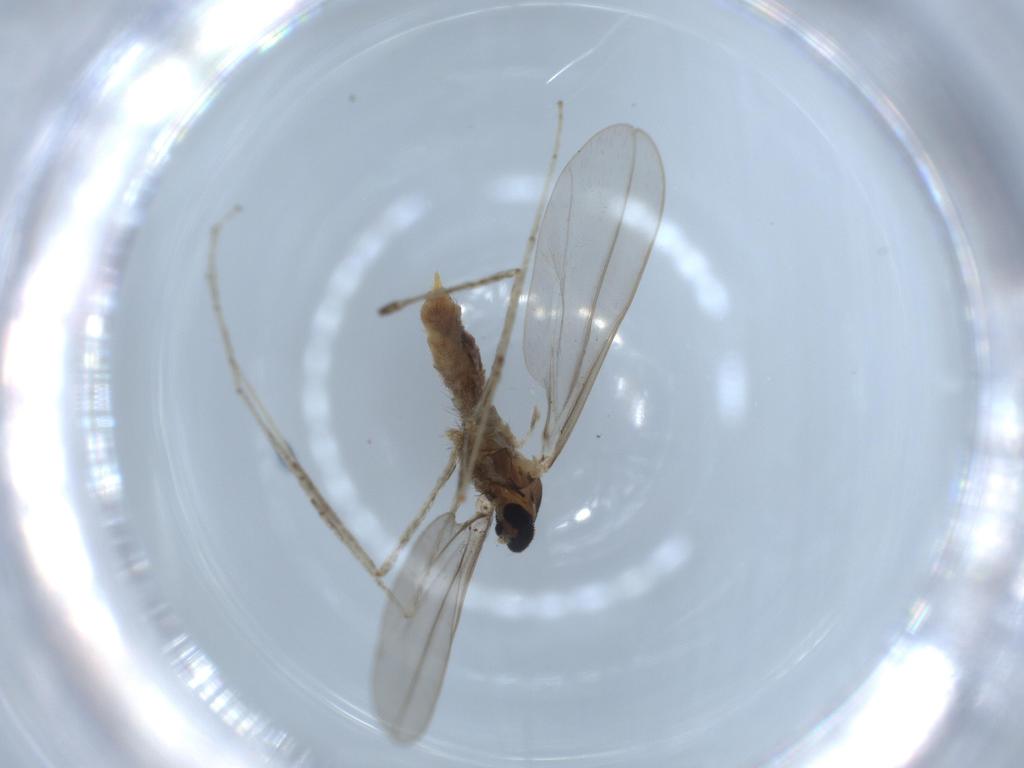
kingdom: Animalia
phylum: Arthropoda
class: Insecta
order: Diptera
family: Cecidomyiidae
